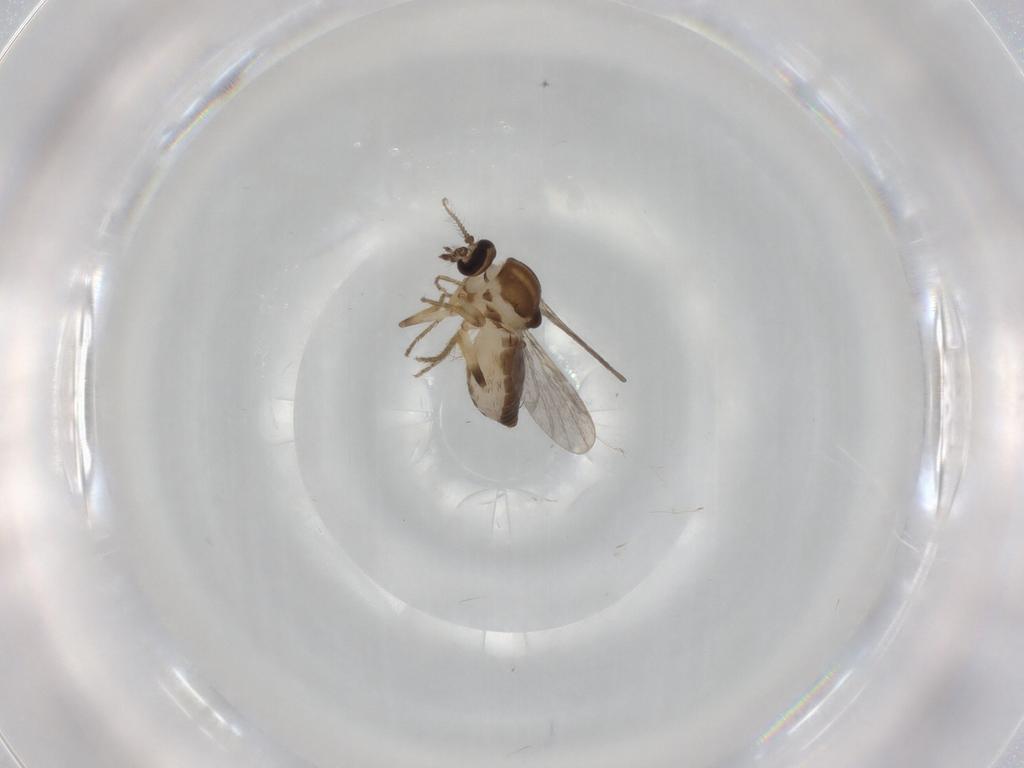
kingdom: Animalia
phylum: Arthropoda
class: Insecta
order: Diptera
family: Ceratopogonidae
